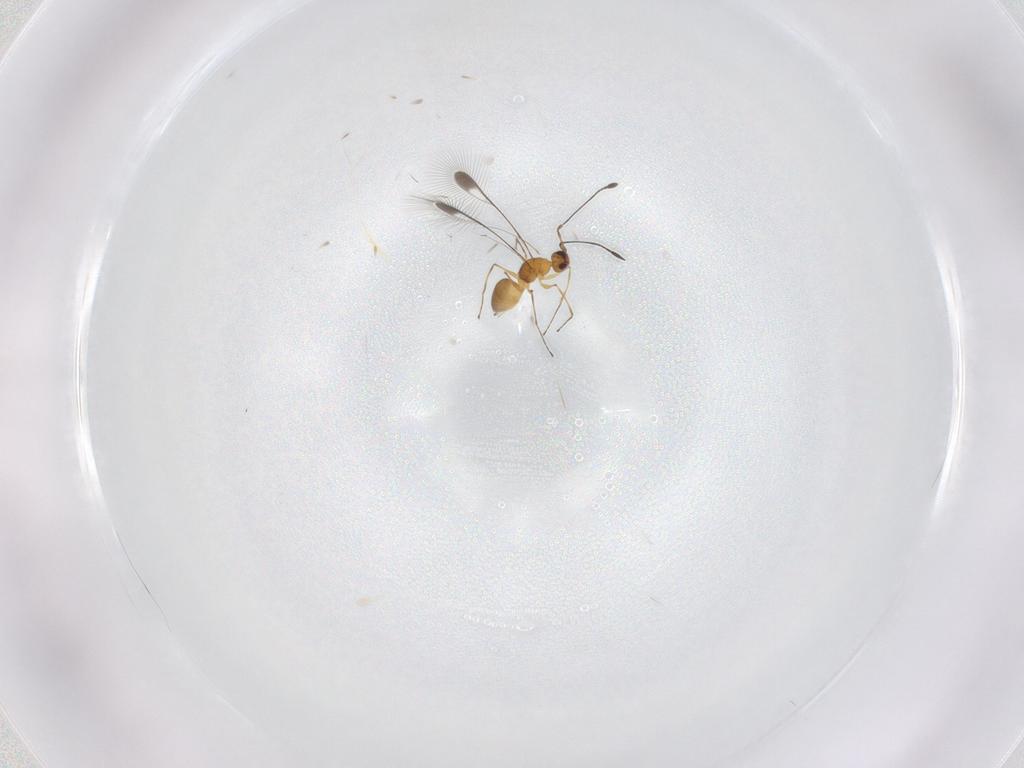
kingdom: Animalia
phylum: Arthropoda
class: Insecta
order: Hymenoptera
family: Mymaridae
